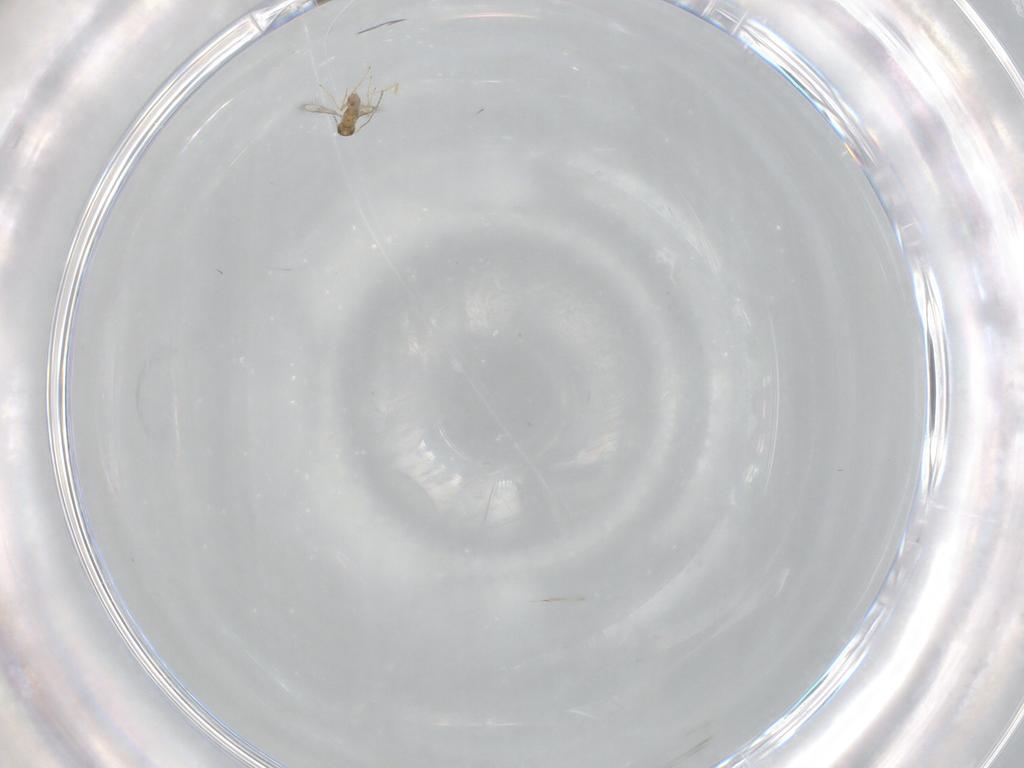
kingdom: Animalia
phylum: Arthropoda
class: Insecta
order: Diptera
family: Cecidomyiidae
